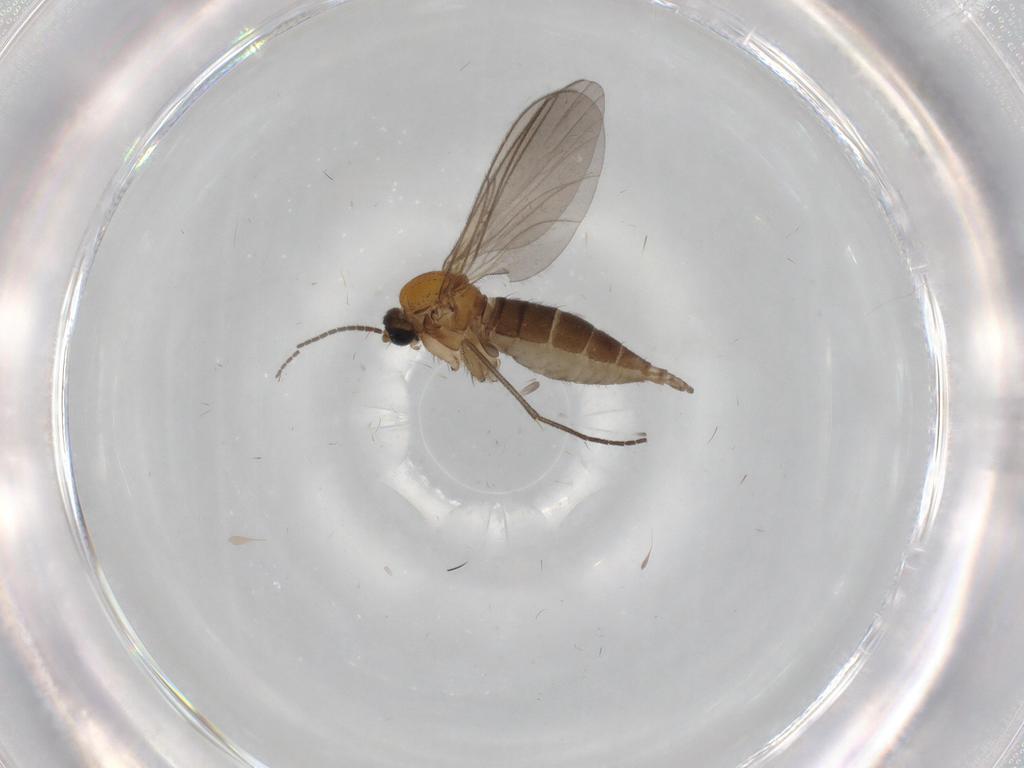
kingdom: Animalia
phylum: Arthropoda
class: Insecta
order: Diptera
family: Sciaridae
